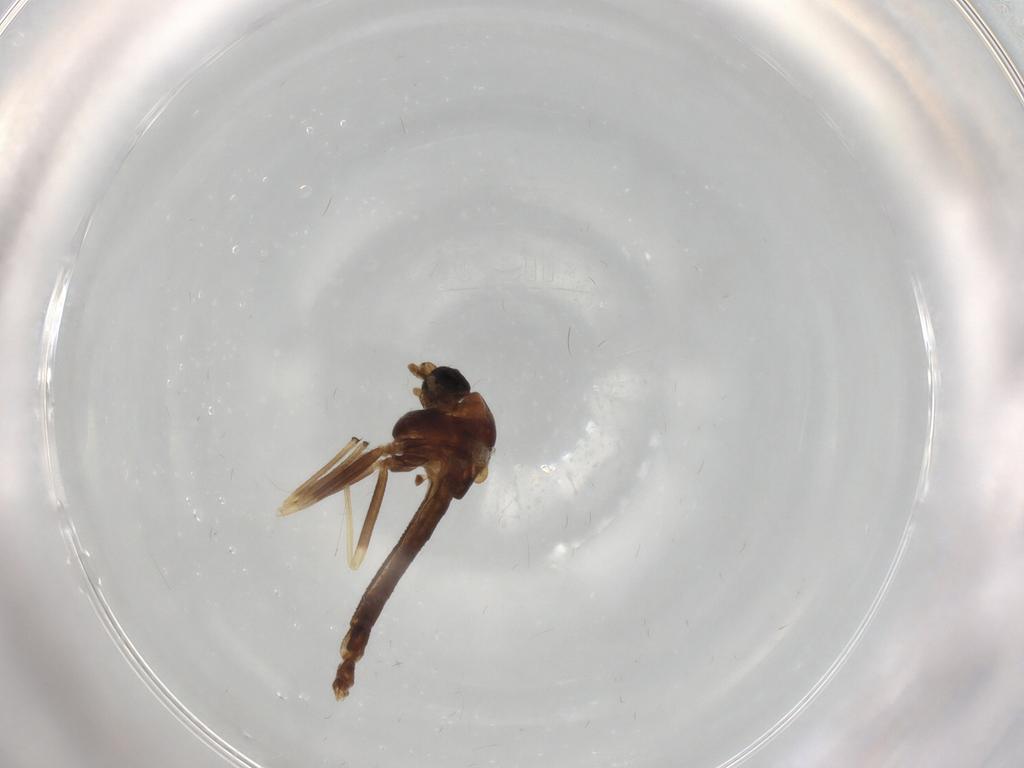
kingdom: Animalia
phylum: Arthropoda
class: Insecta
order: Diptera
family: Chironomidae
